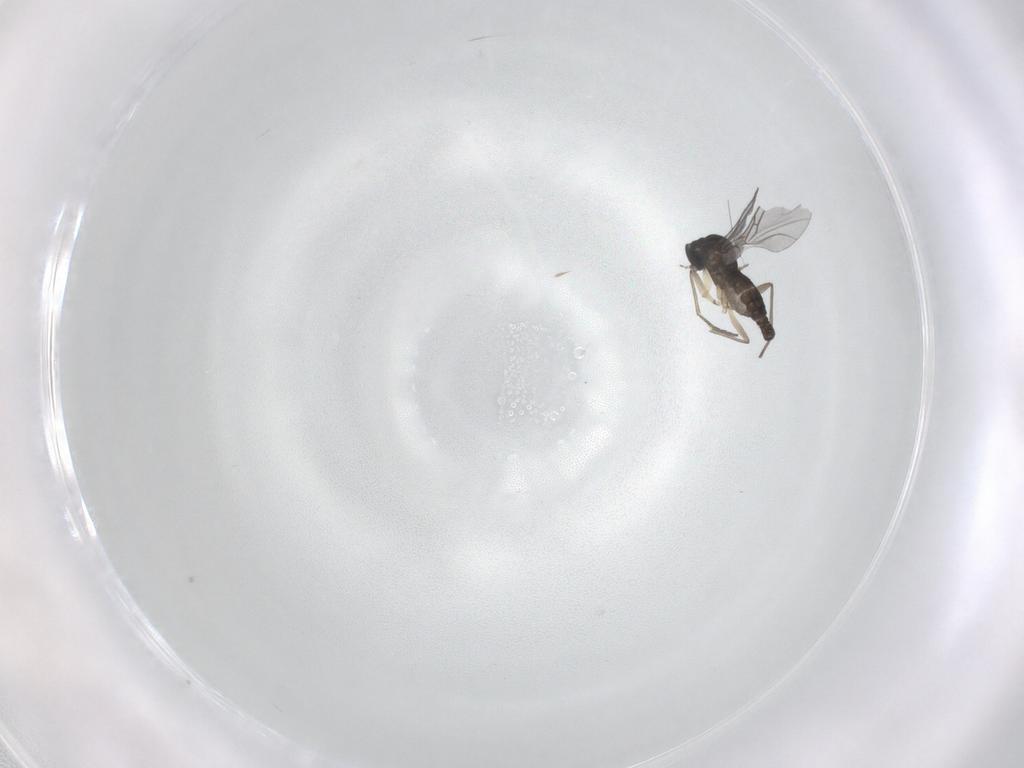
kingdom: Animalia
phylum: Arthropoda
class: Insecta
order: Diptera
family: Sciaridae
